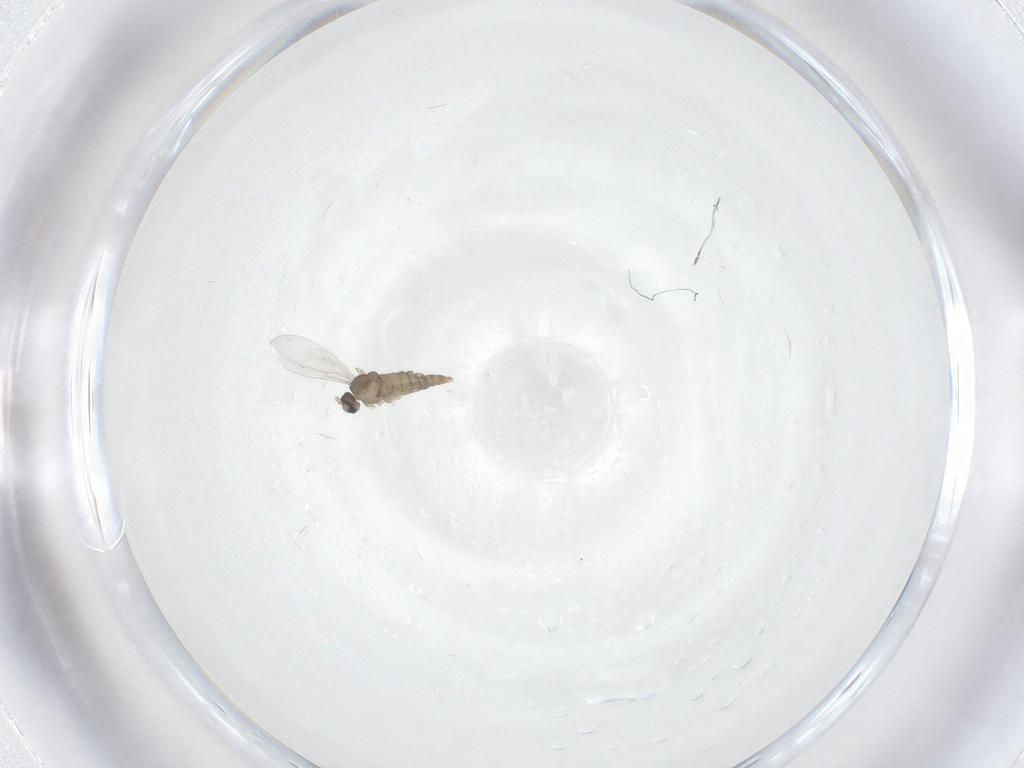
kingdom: Animalia
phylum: Arthropoda
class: Insecta
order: Diptera
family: Cecidomyiidae
